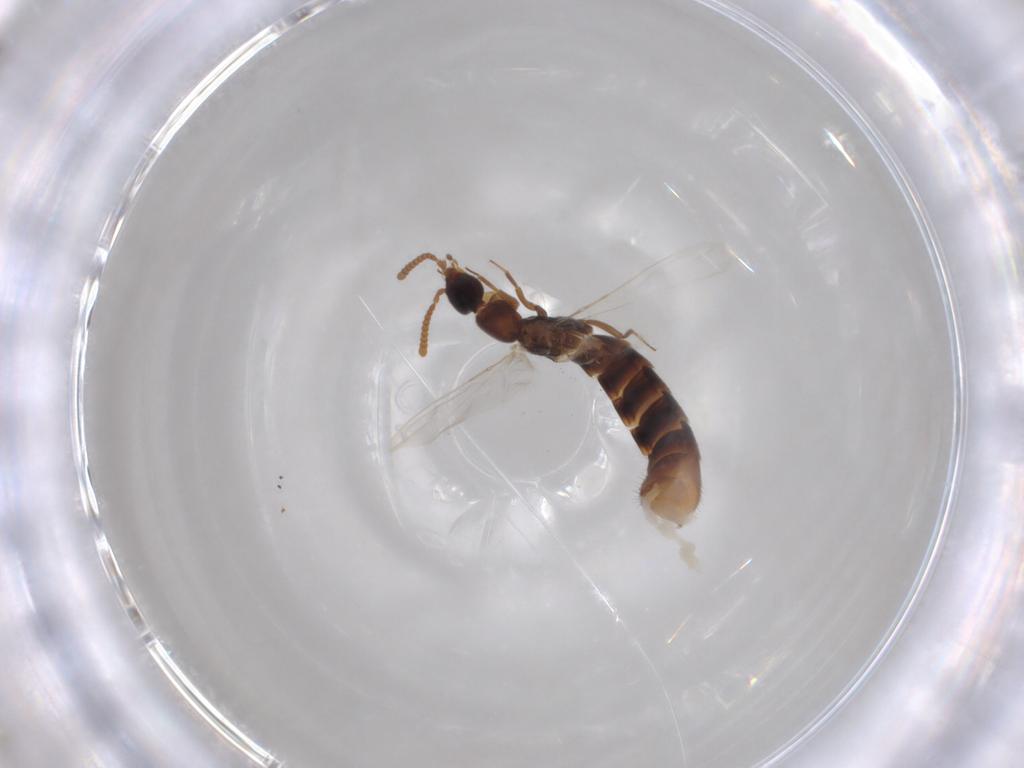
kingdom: Animalia
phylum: Arthropoda
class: Insecta
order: Coleoptera
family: Staphylinidae
